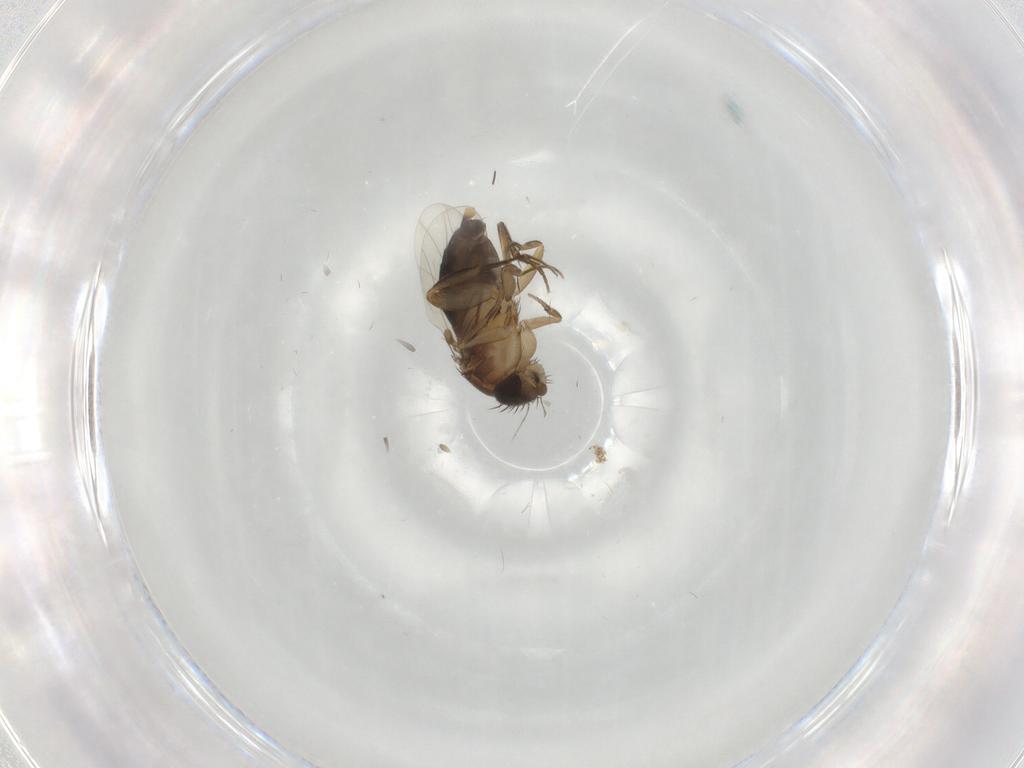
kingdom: Animalia
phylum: Arthropoda
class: Insecta
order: Diptera
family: Phoridae
